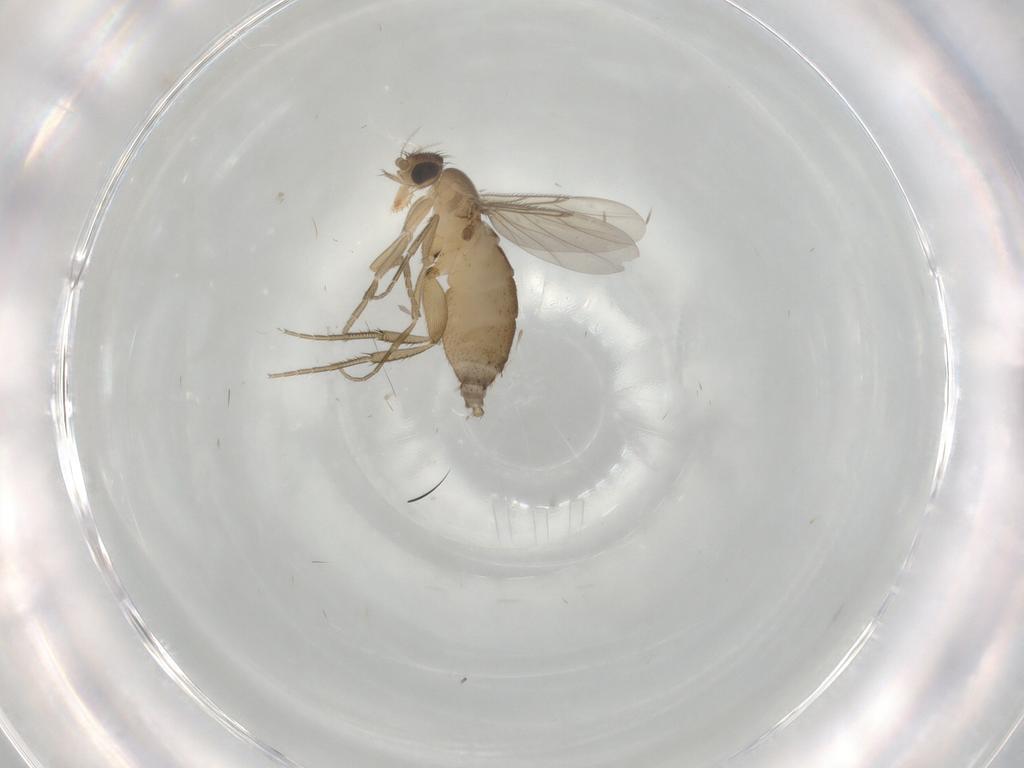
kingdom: Animalia
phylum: Arthropoda
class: Insecta
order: Diptera
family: Phoridae
